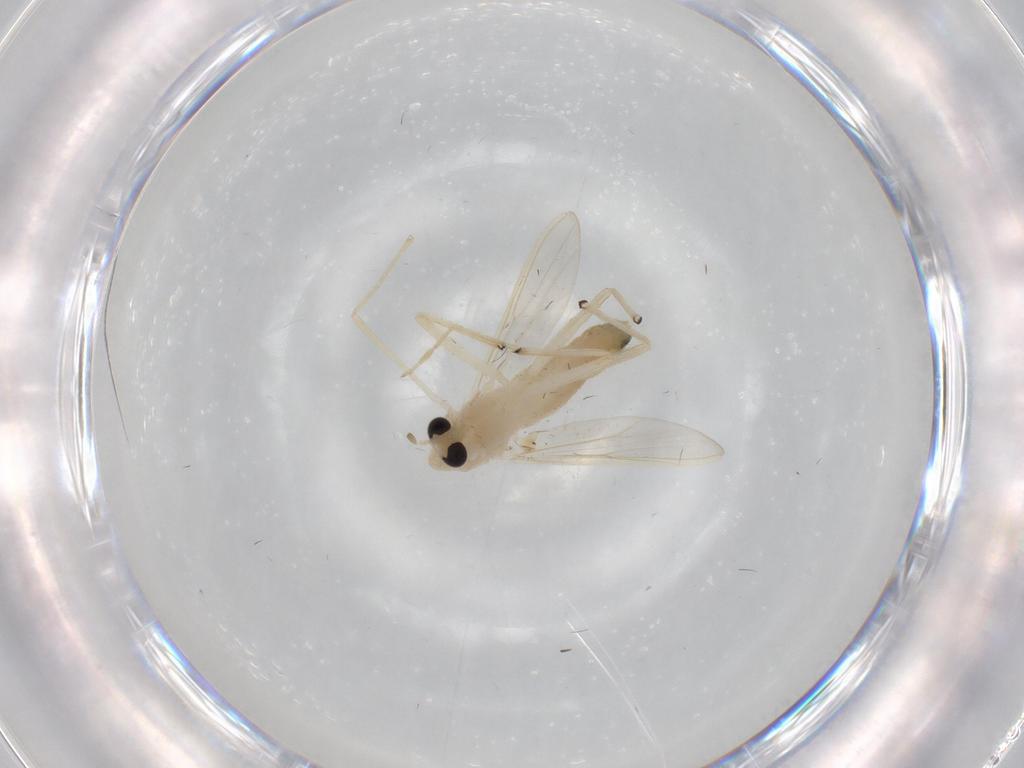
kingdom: Animalia
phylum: Arthropoda
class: Insecta
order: Diptera
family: Chironomidae
